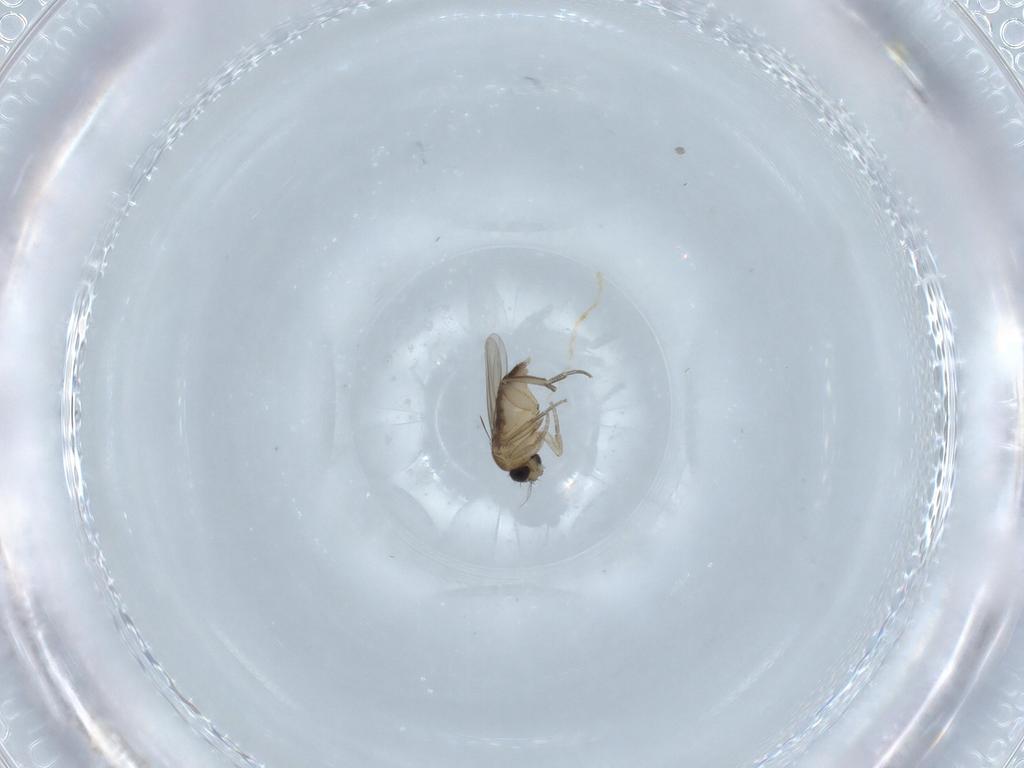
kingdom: Animalia
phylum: Arthropoda
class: Insecta
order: Diptera
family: Phoridae
